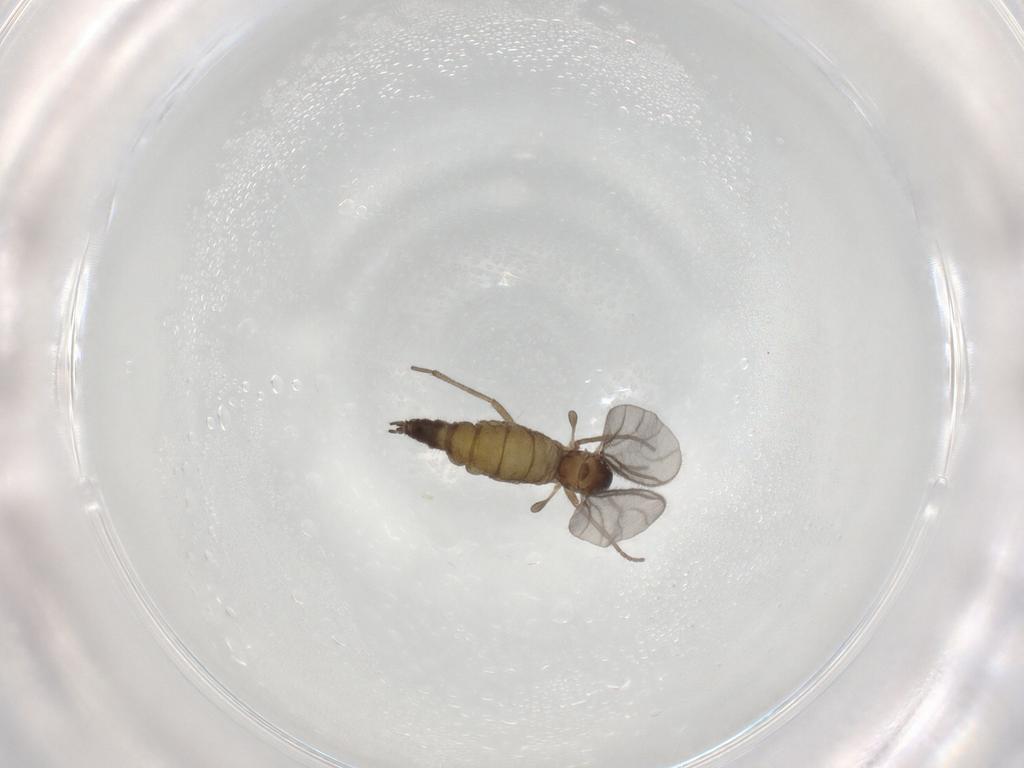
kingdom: Animalia
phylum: Arthropoda
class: Insecta
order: Diptera
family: Sciaridae
